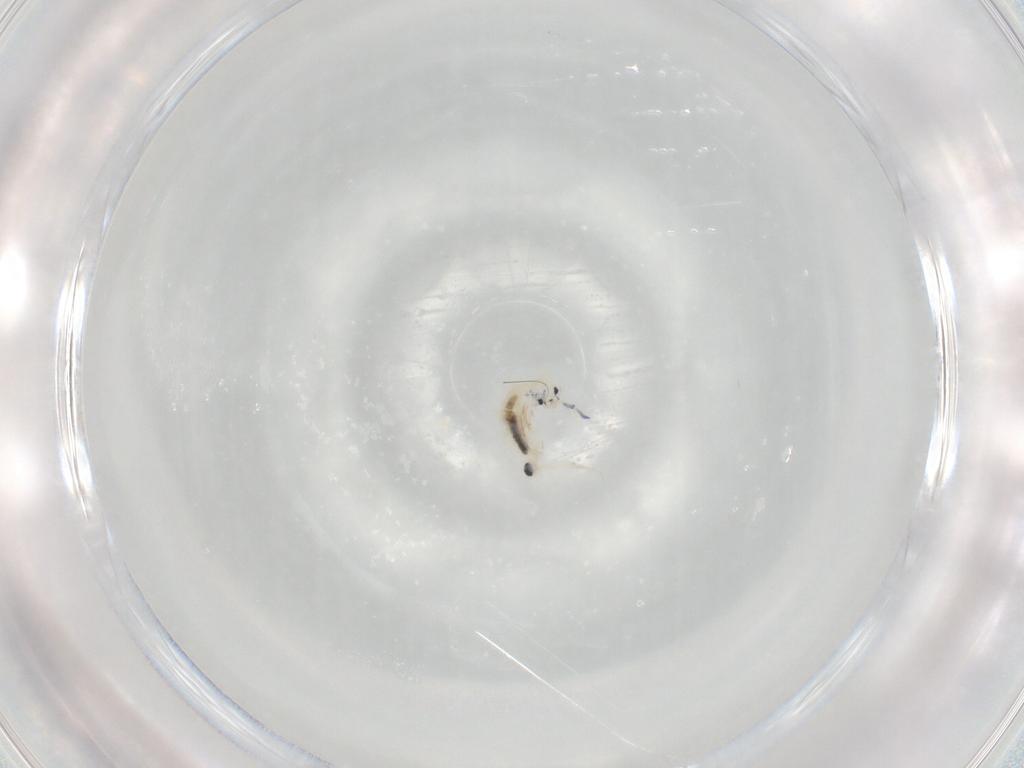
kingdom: Animalia
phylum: Arthropoda
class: Collembola
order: Entomobryomorpha
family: Entomobryidae
